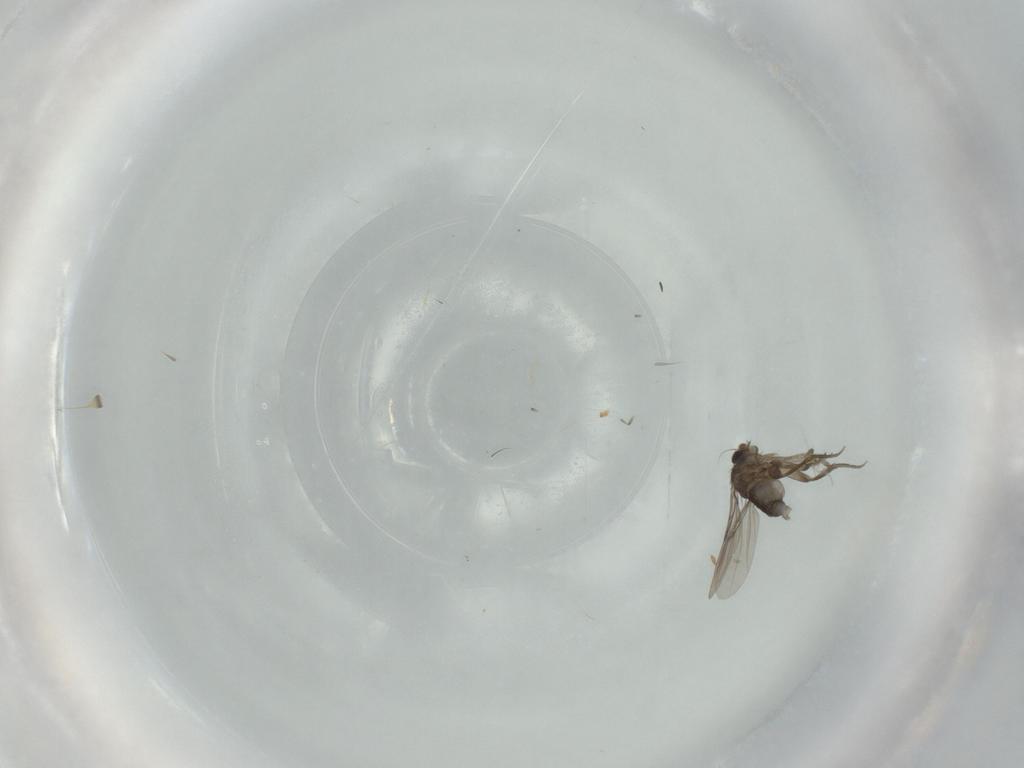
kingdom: Animalia
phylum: Arthropoda
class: Insecta
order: Diptera
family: Phoridae
